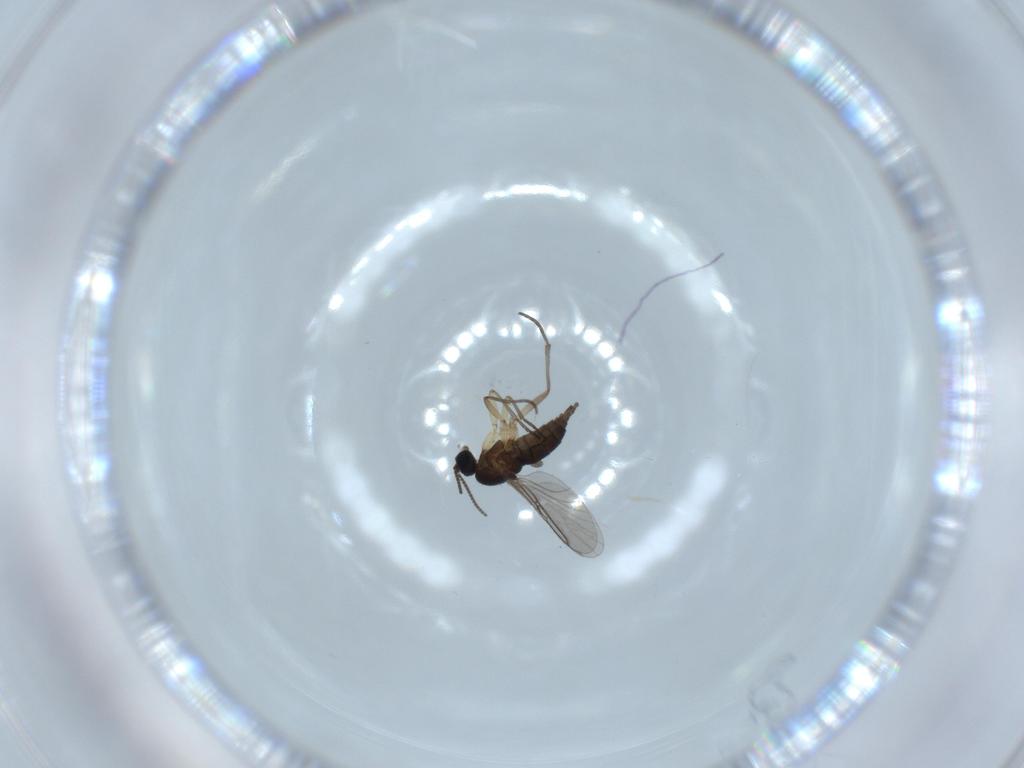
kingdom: Animalia
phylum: Arthropoda
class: Insecta
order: Diptera
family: Sciaridae
